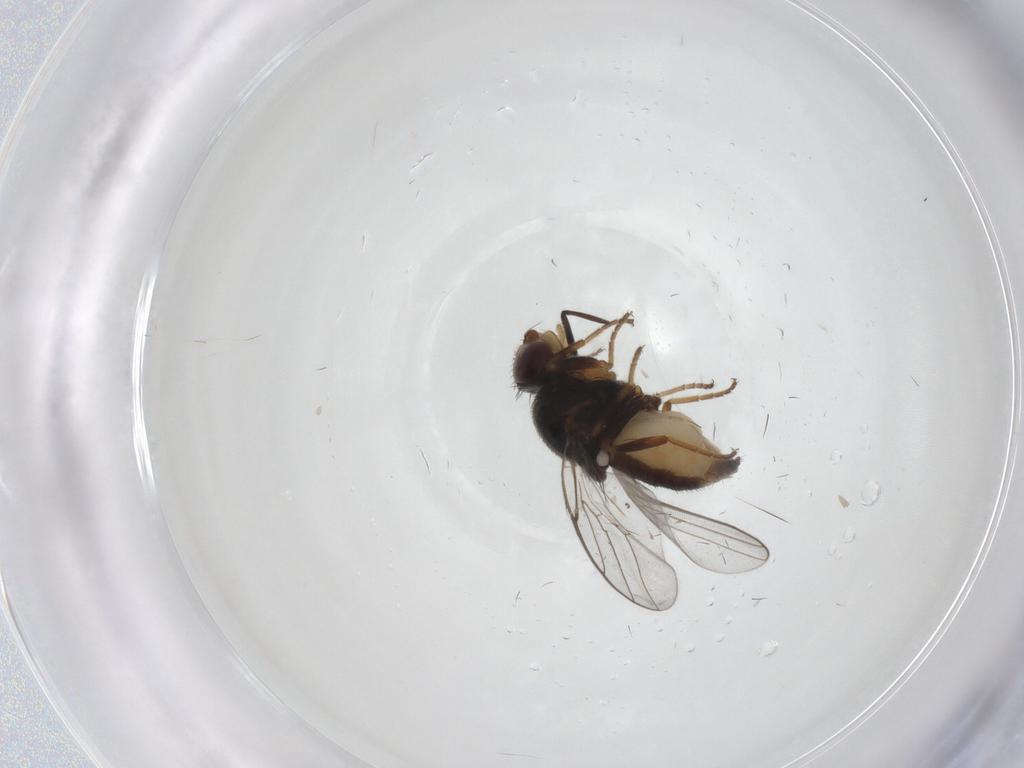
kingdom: Animalia
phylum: Arthropoda
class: Insecta
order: Diptera
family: Chloropidae
